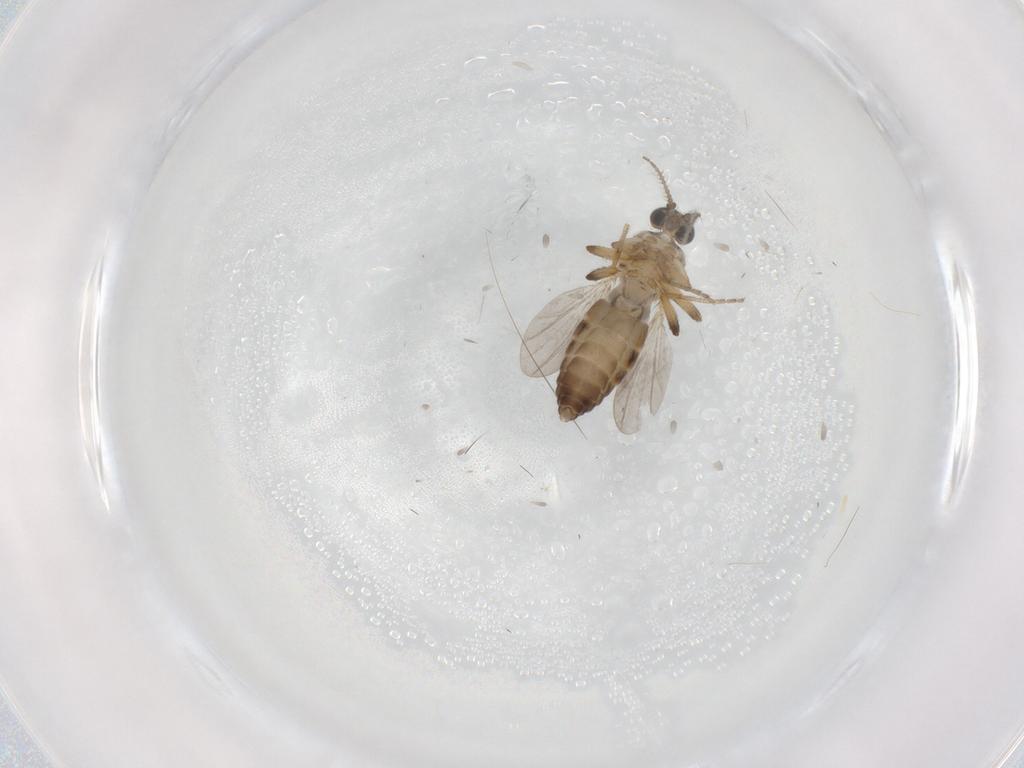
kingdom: Animalia
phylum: Arthropoda
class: Insecta
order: Diptera
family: Ceratopogonidae
